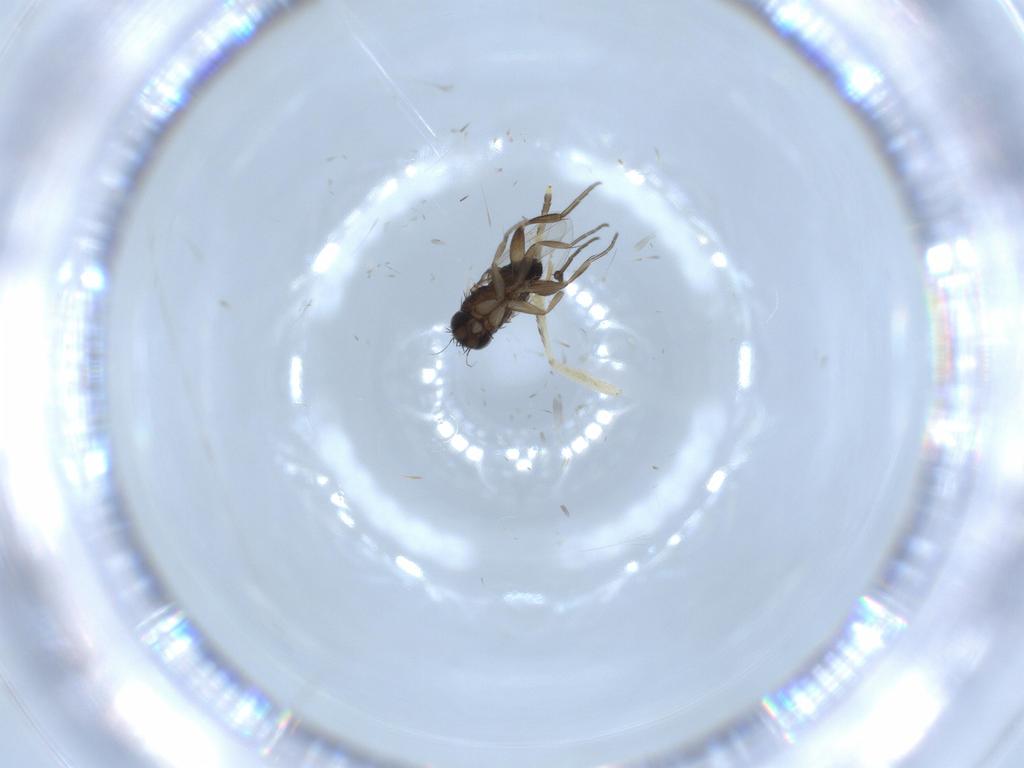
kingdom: Animalia
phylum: Arthropoda
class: Insecta
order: Diptera
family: Phoridae
